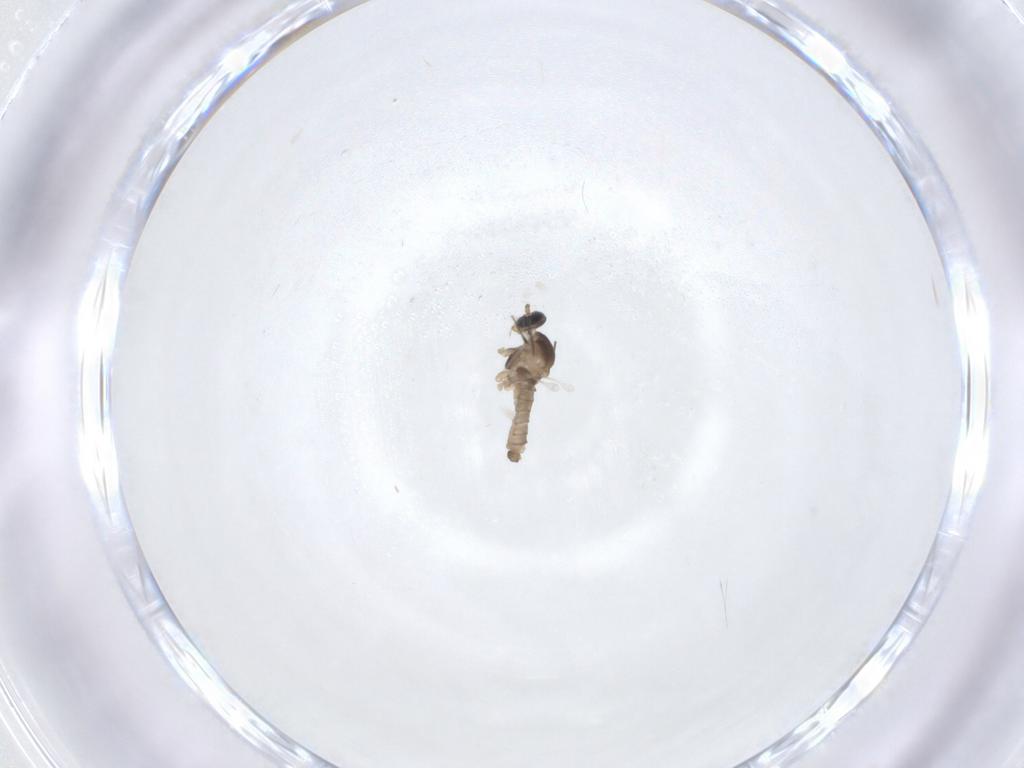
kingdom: Animalia
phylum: Arthropoda
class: Insecta
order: Diptera
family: Cecidomyiidae
